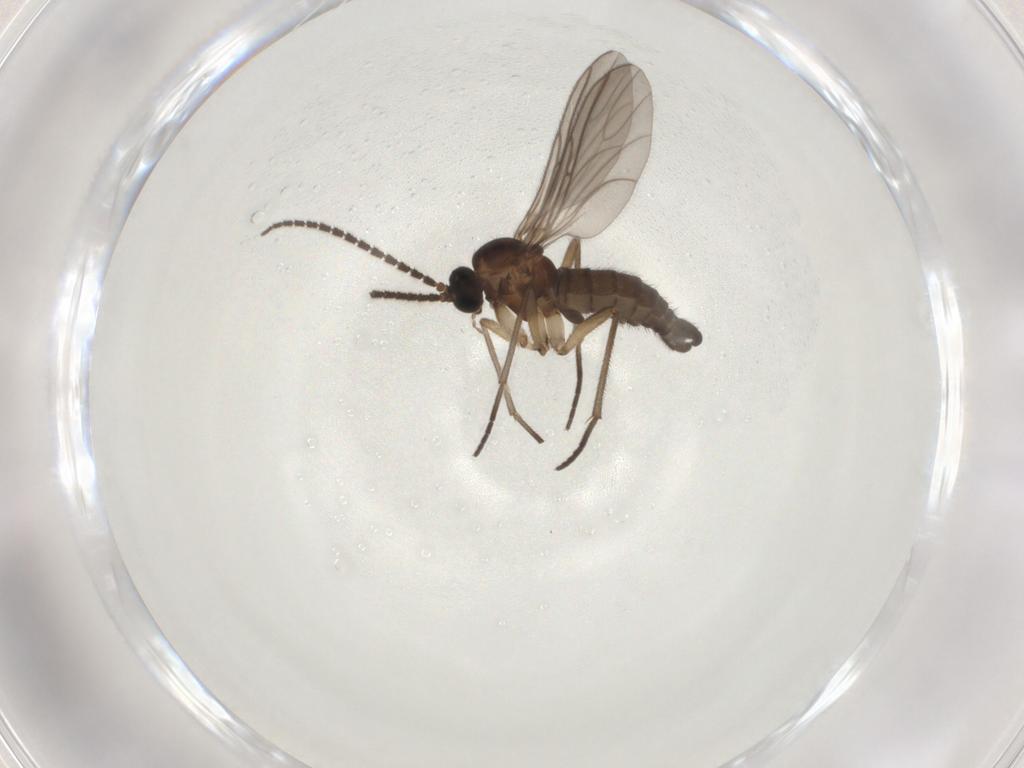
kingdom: Animalia
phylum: Arthropoda
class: Insecta
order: Diptera
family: Sciaridae
